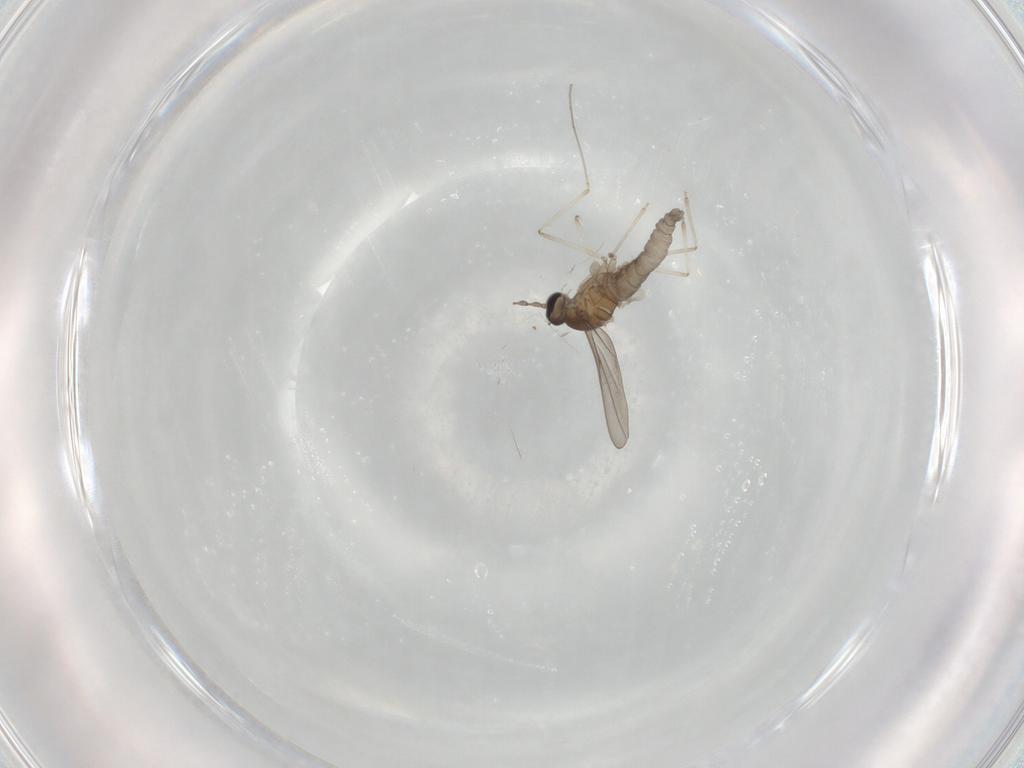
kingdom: Animalia
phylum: Arthropoda
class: Insecta
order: Diptera
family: Cecidomyiidae
